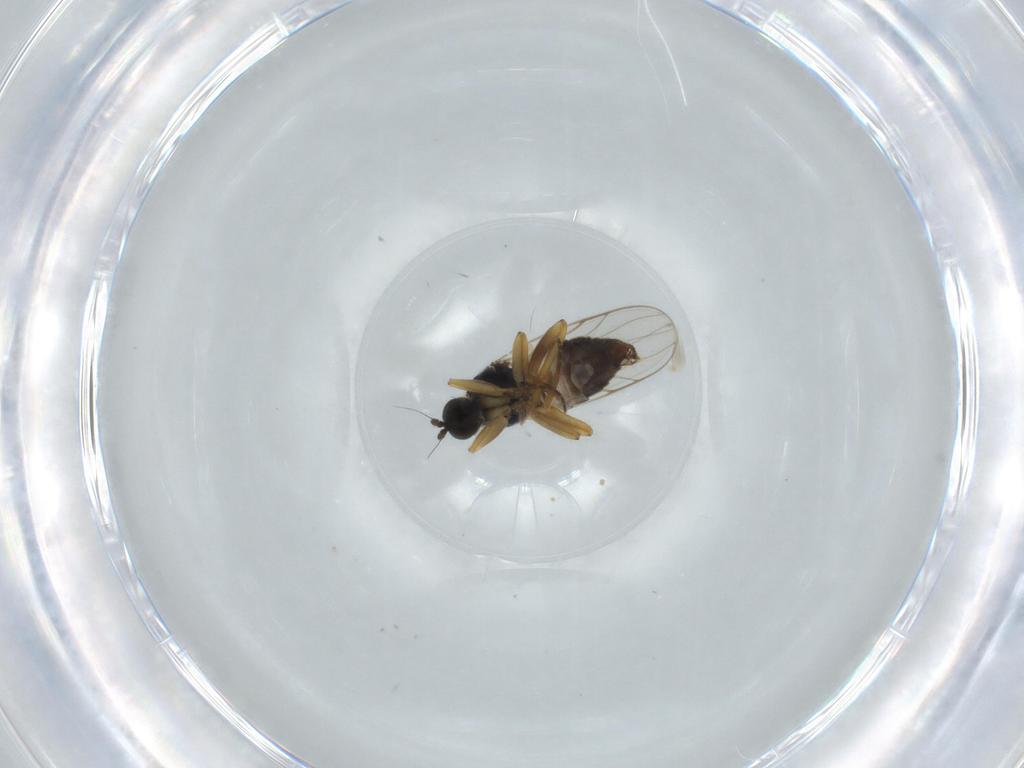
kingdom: Animalia
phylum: Arthropoda
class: Insecta
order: Diptera
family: Hybotidae
